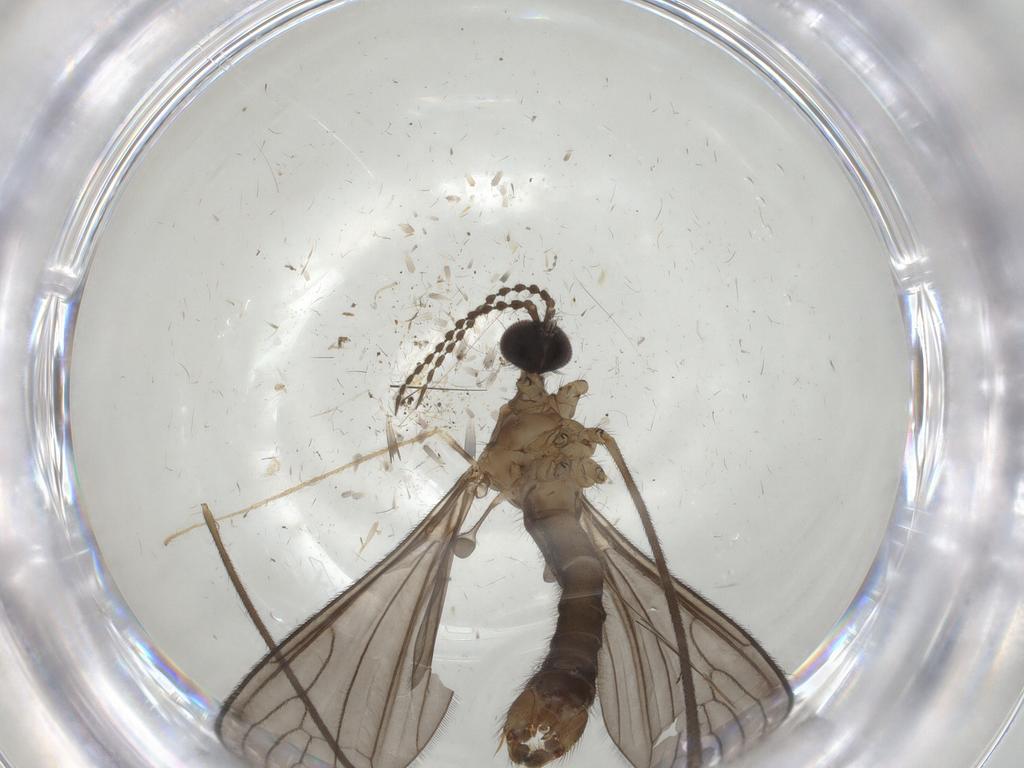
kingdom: Animalia
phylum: Arthropoda
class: Insecta
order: Diptera
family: Limoniidae
